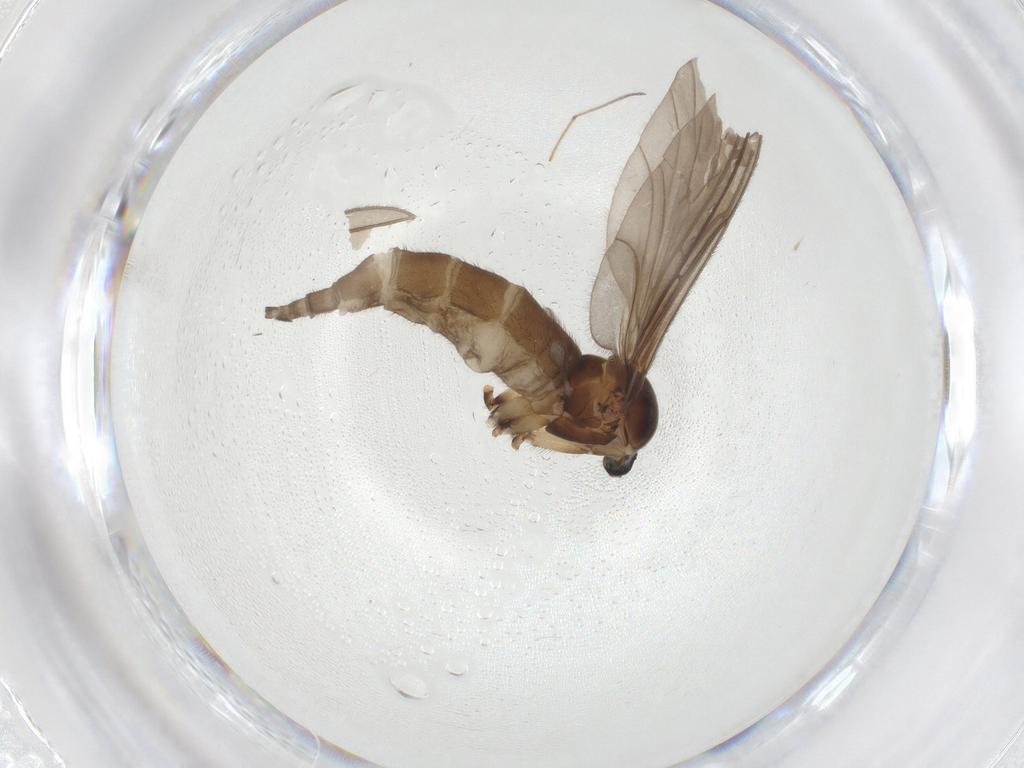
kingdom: Animalia
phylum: Arthropoda
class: Insecta
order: Diptera
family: Sciaridae
